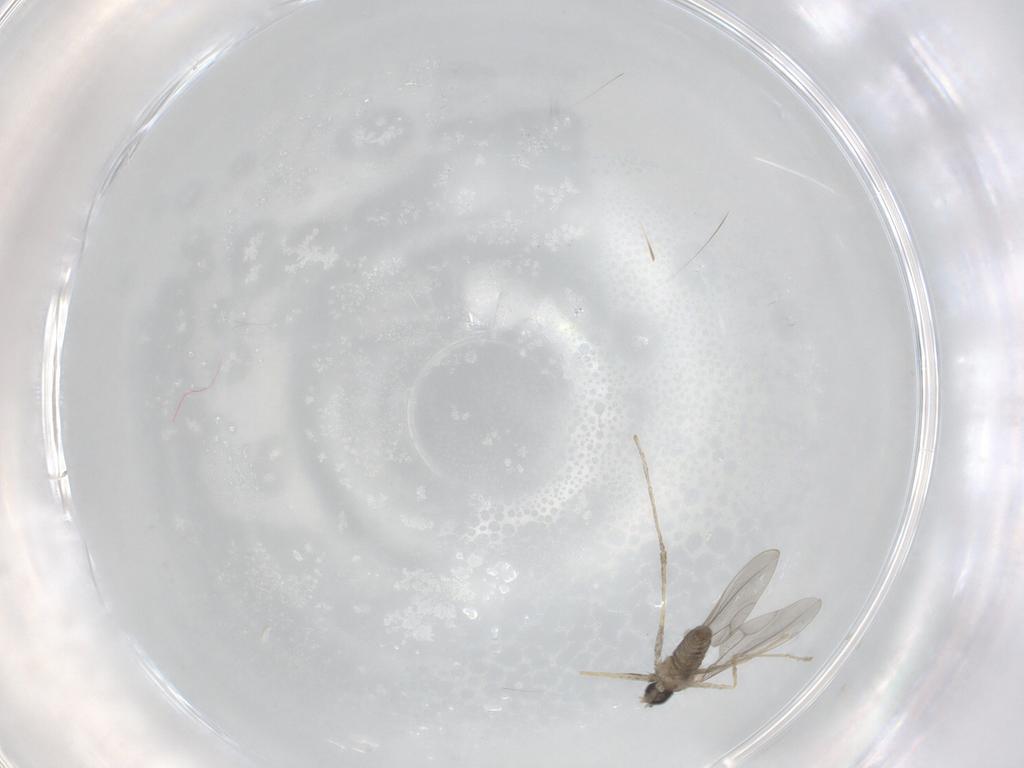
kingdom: Animalia
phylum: Arthropoda
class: Insecta
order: Diptera
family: Cecidomyiidae
